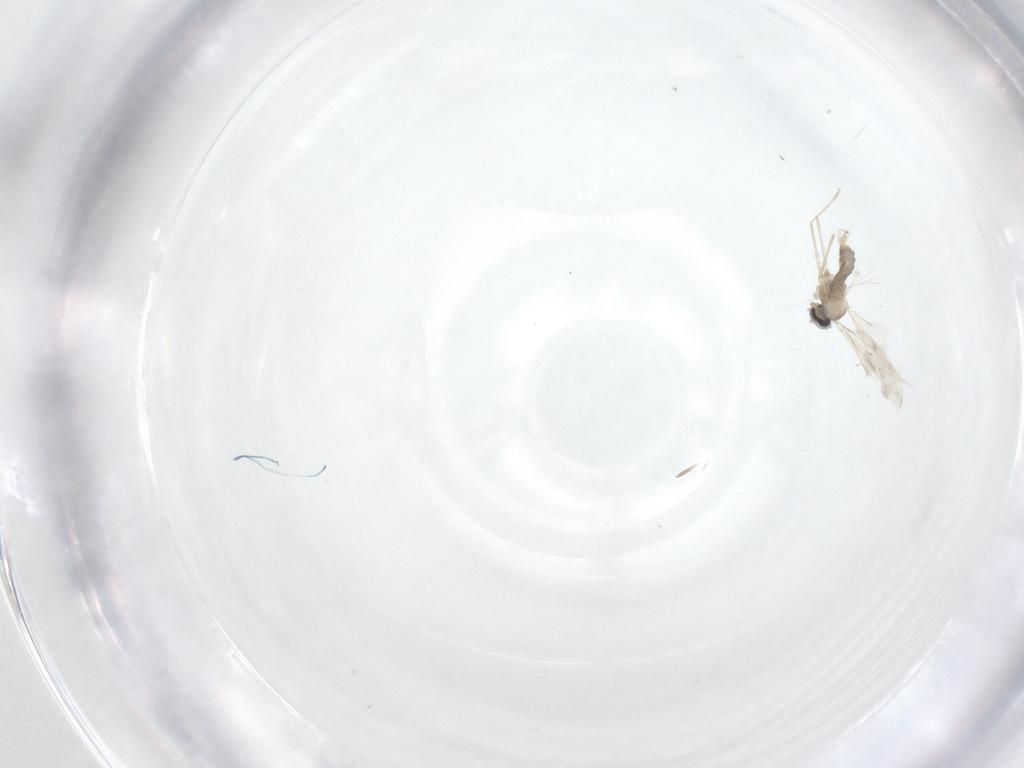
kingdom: Animalia
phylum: Arthropoda
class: Insecta
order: Diptera
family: Cecidomyiidae
